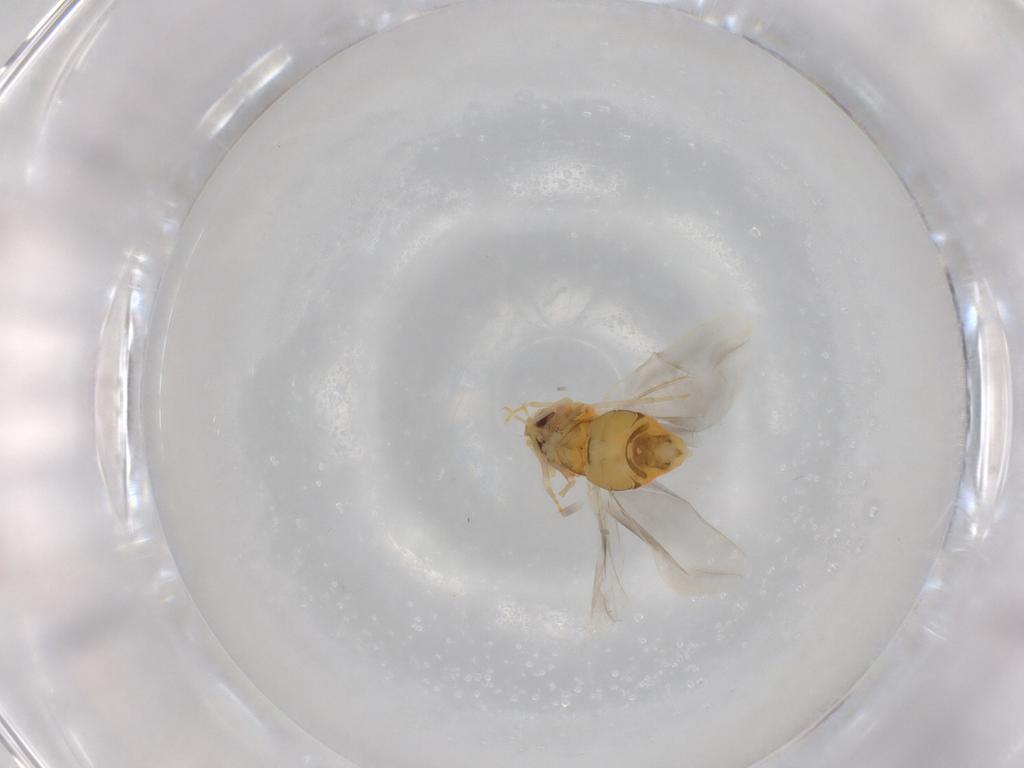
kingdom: Animalia
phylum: Arthropoda
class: Insecta
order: Hemiptera
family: Aleyrodidae
